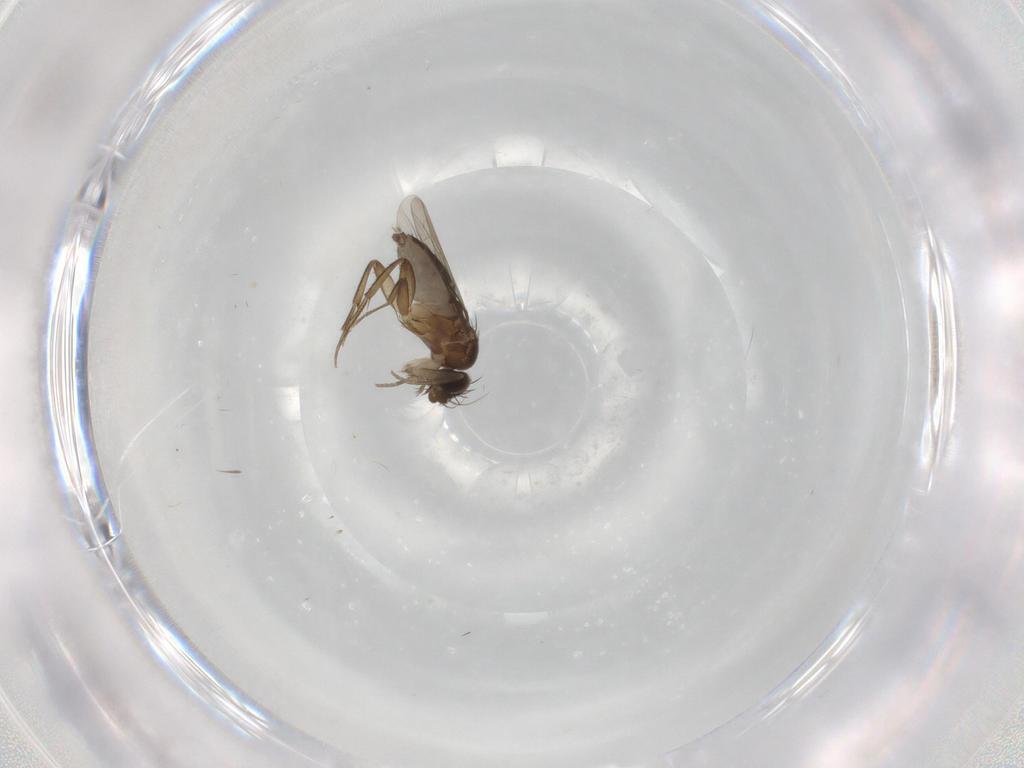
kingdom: Animalia
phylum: Arthropoda
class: Insecta
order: Diptera
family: Phoridae
